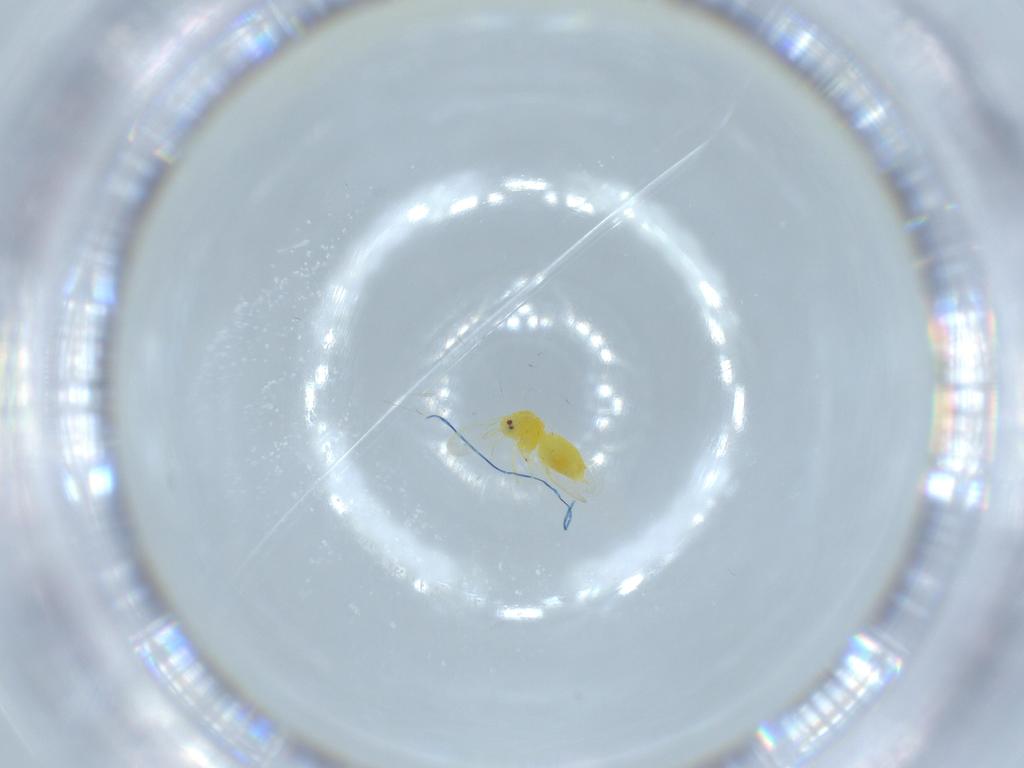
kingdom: Animalia
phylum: Arthropoda
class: Insecta
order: Hemiptera
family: Aleyrodidae
